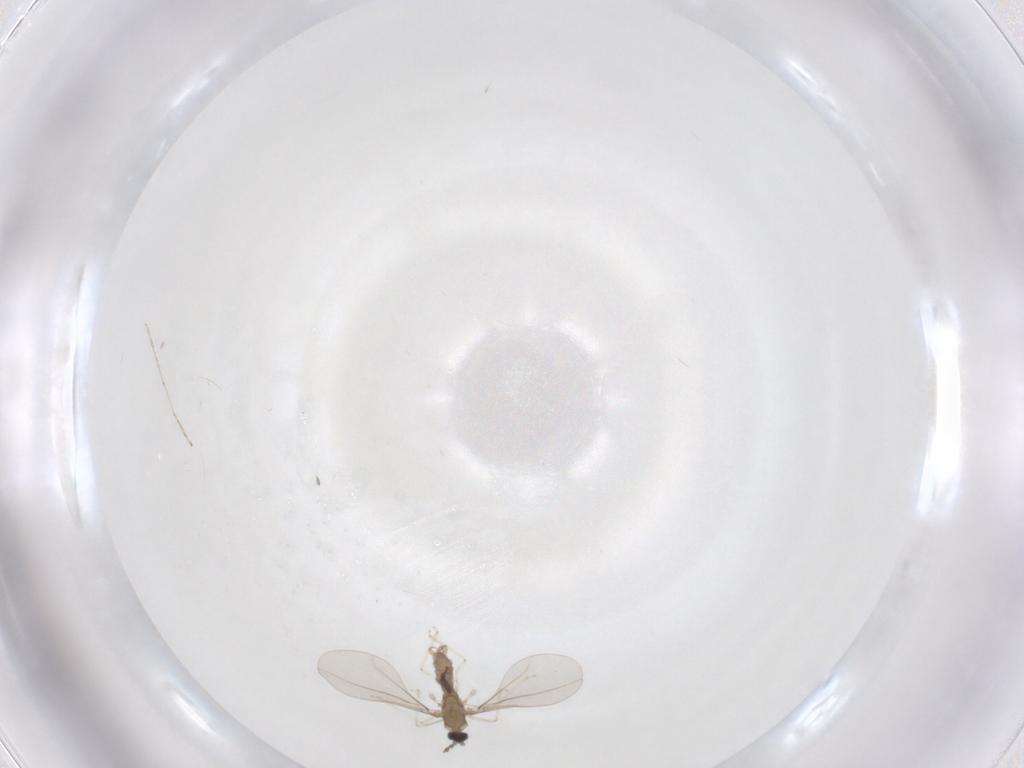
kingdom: Animalia
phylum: Arthropoda
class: Insecta
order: Diptera
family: Cecidomyiidae
